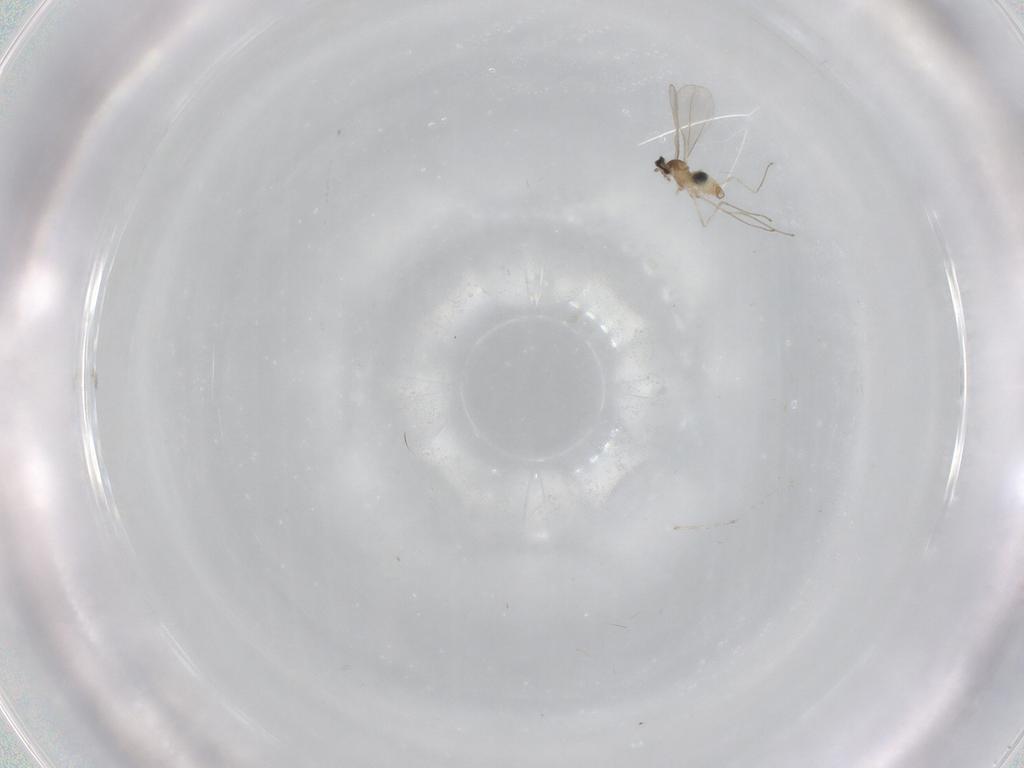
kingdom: Animalia
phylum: Arthropoda
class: Insecta
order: Diptera
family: Cecidomyiidae
